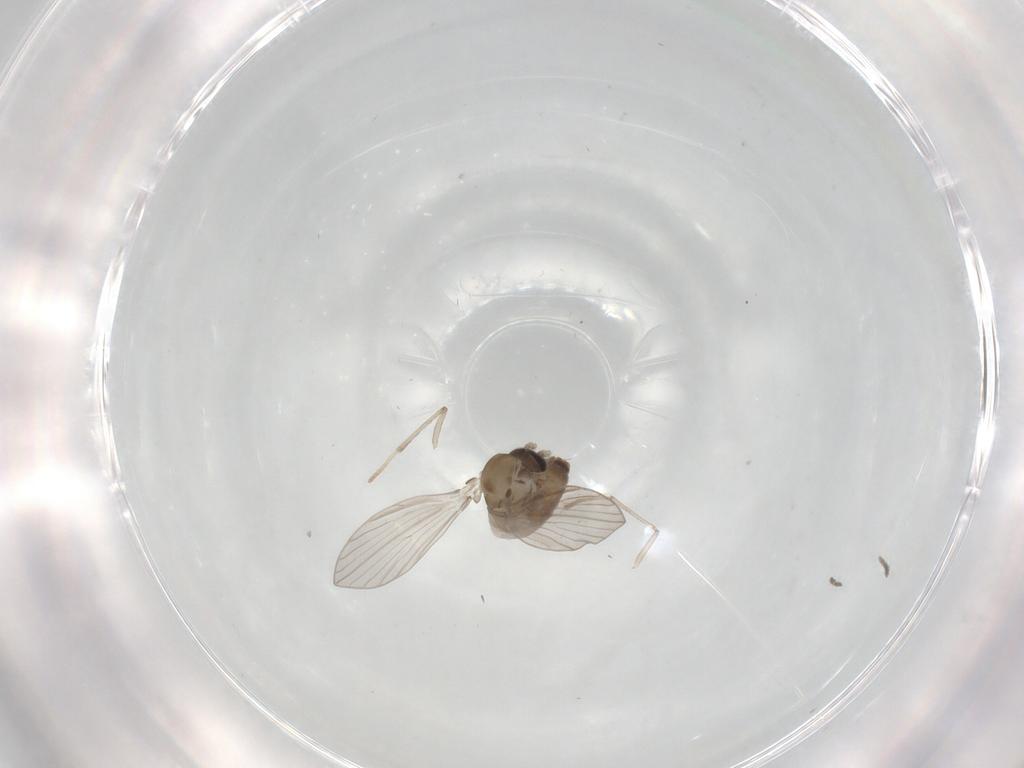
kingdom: Animalia
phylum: Arthropoda
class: Insecta
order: Diptera
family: Psychodidae
